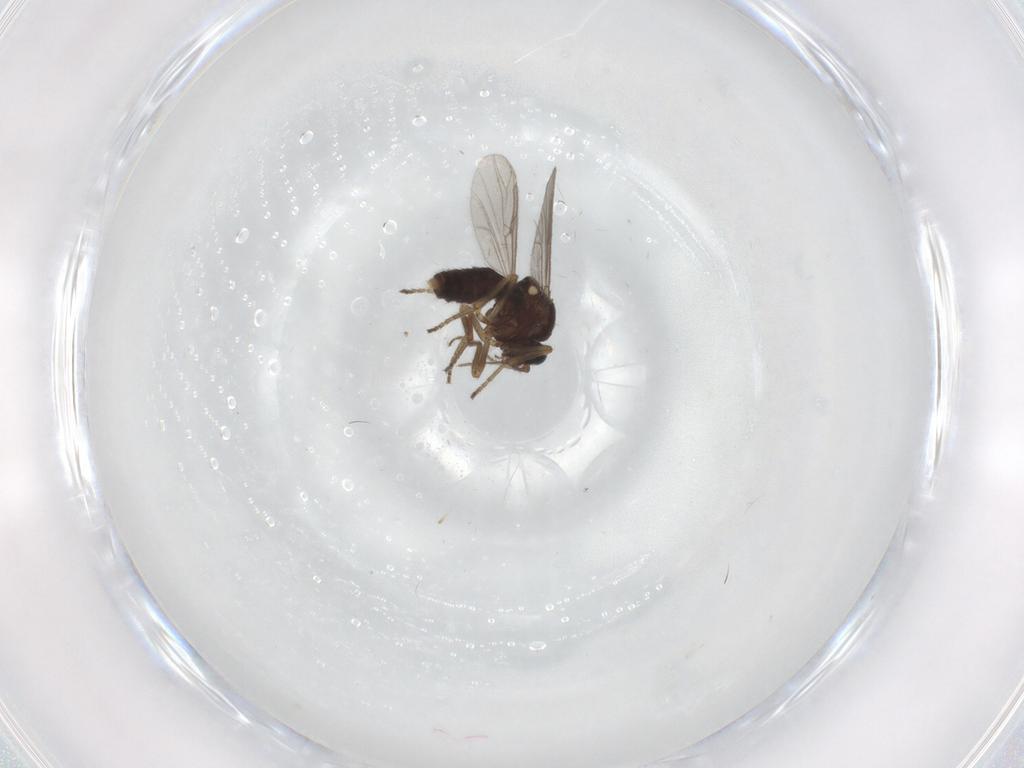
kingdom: Animalia
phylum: Arthropoda
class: Insecta
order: Diptera
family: Ceratopogonidae
